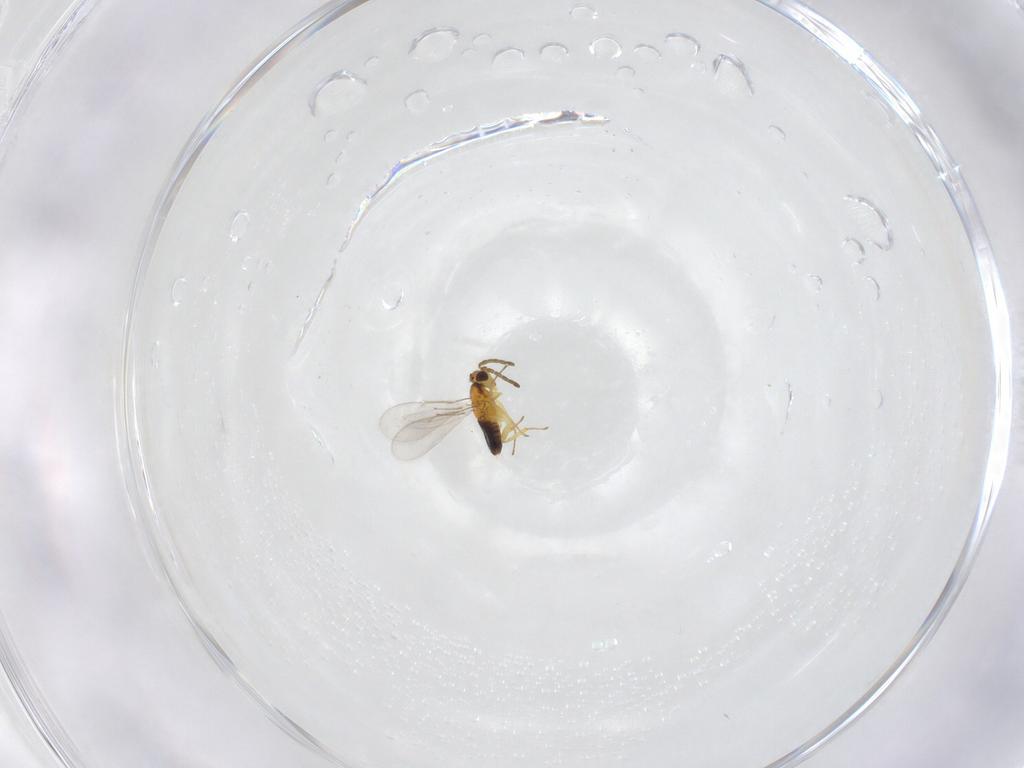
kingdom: Animalia
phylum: Arthropoda
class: Insecta
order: Hymenoptera
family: Aphelinidae
